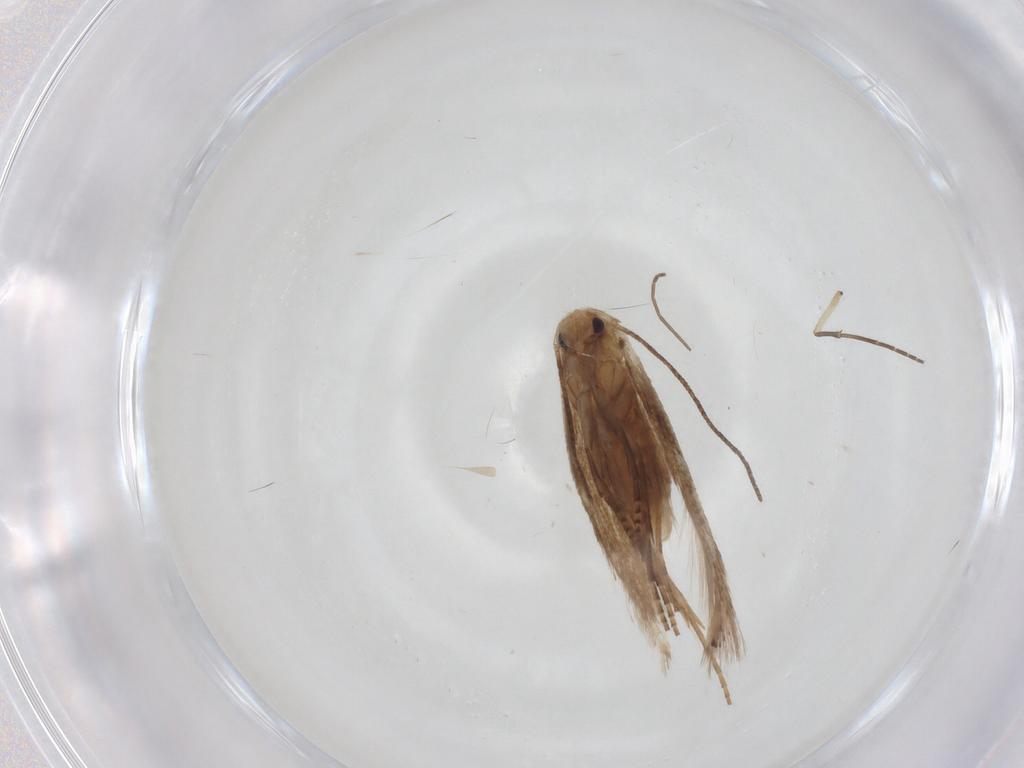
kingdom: Animalia
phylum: Arthropoda
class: Insecta
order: Lepidoptera
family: Bucculatricidae
